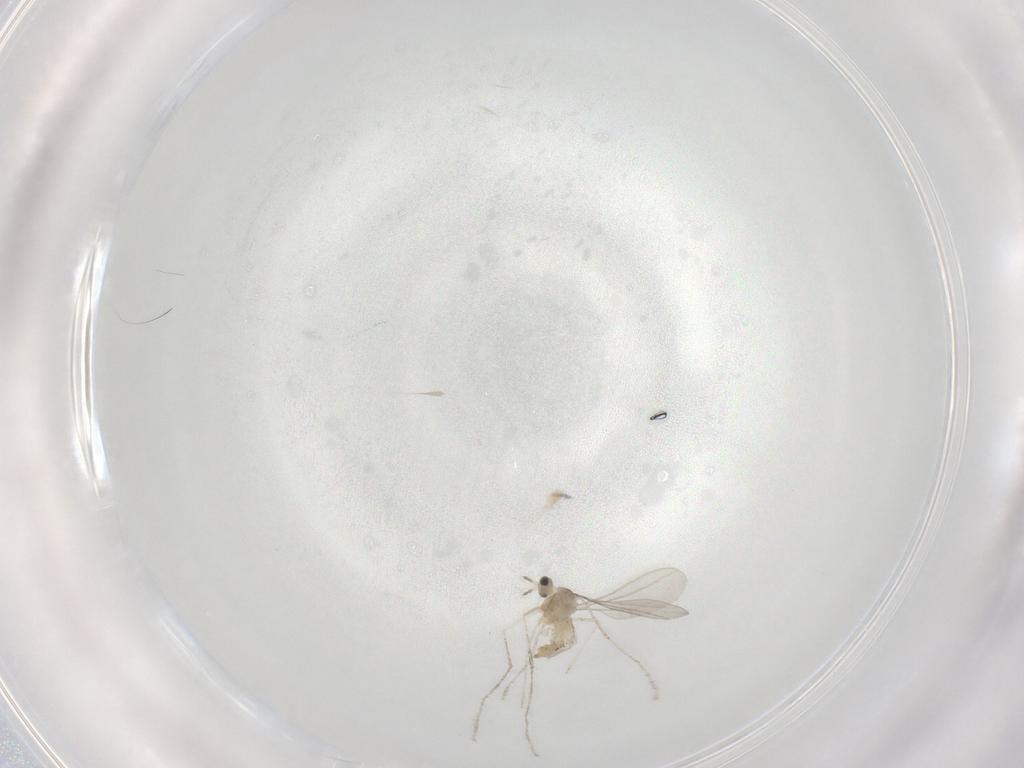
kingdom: Animalia
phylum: Arthropoda
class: Insecta
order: Diptera
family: Cecidomyiidae
